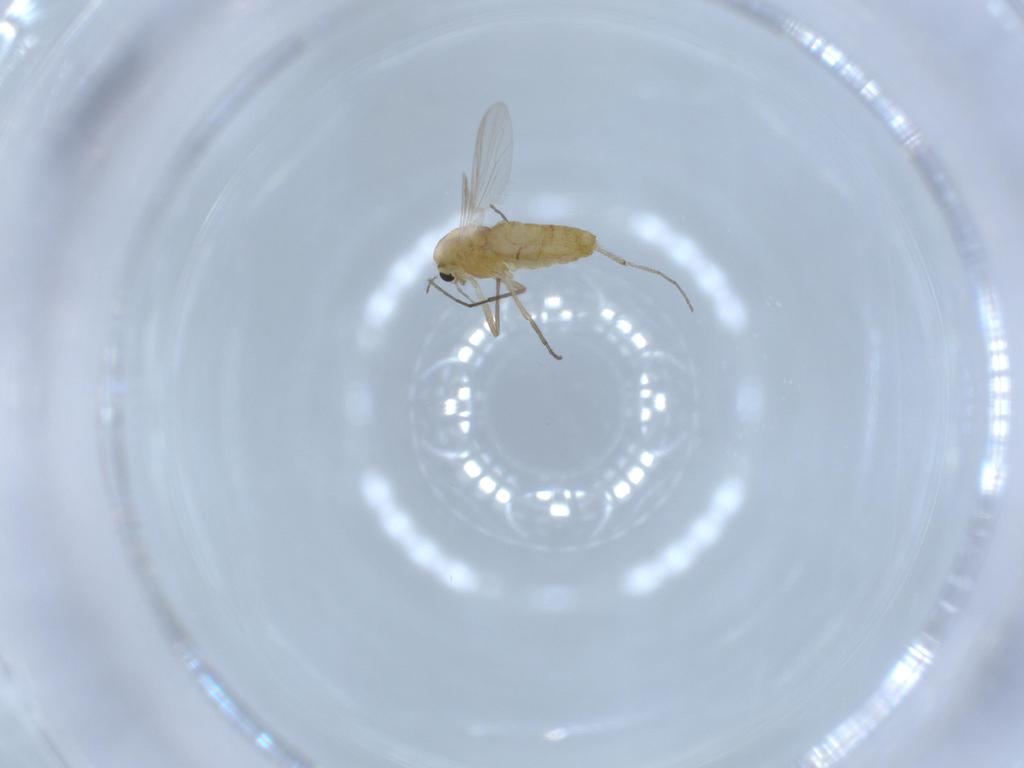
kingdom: Animalia
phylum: Arthropoda
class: Insecta
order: Diptera
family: Chironomidae
